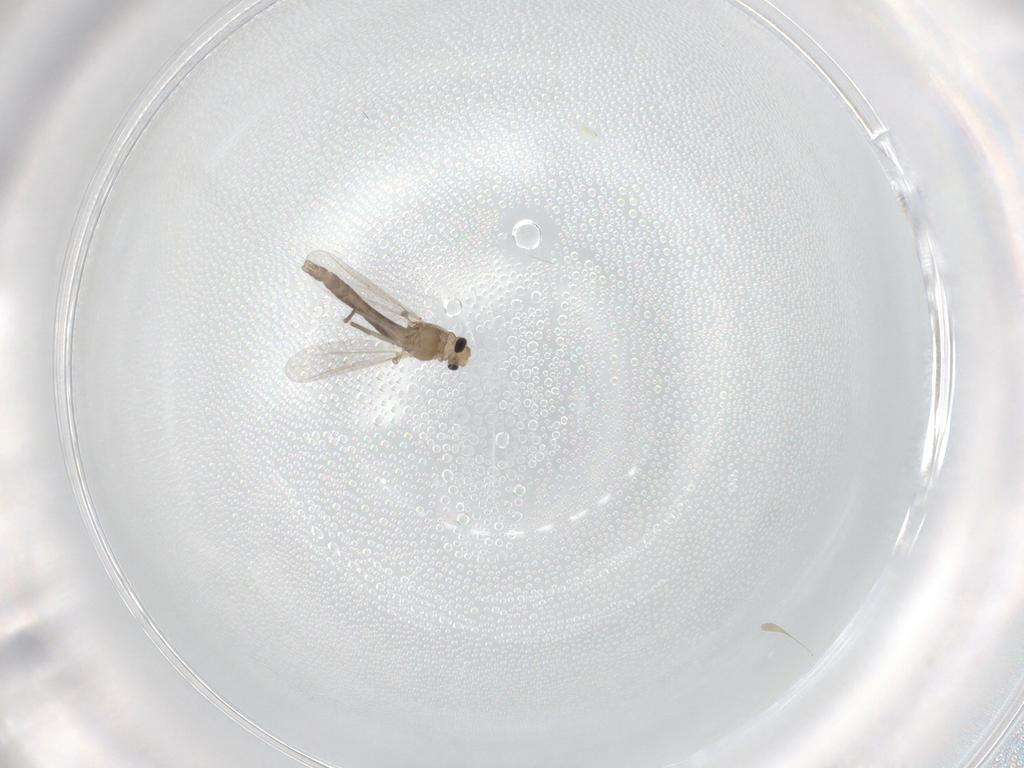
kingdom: Animalia
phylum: Arthropoda
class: Insecta
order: Diptera
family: Chironomidae
